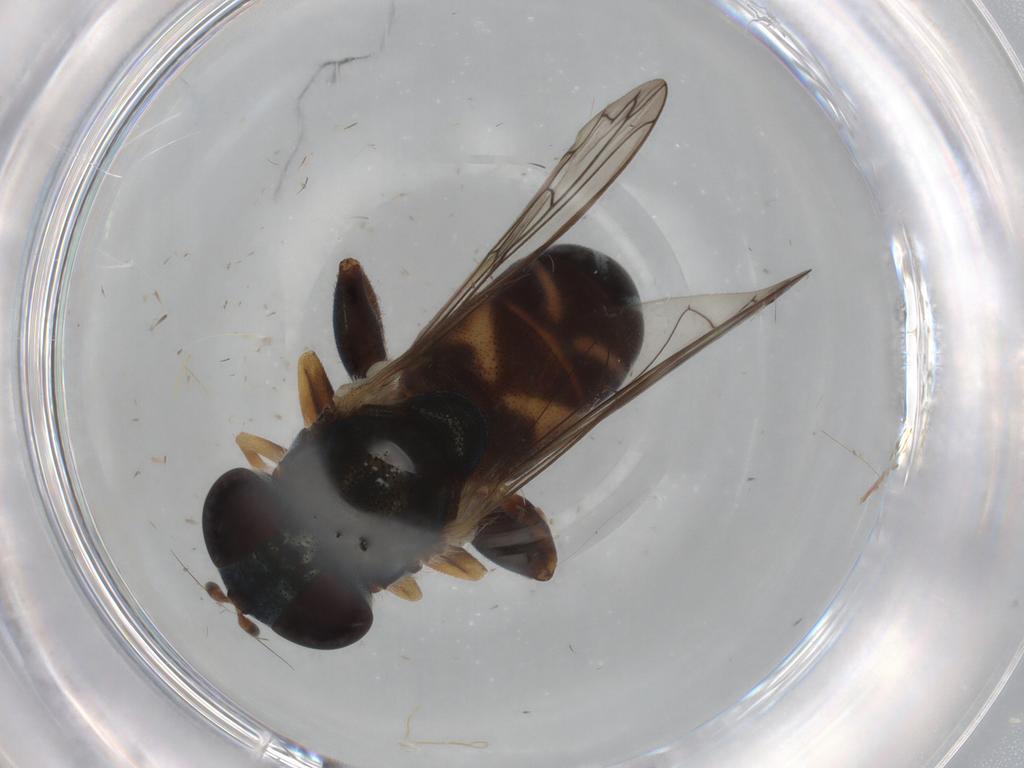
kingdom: Animalia
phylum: Arthropoda
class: Insecta
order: Diptera
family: Syrphidae
